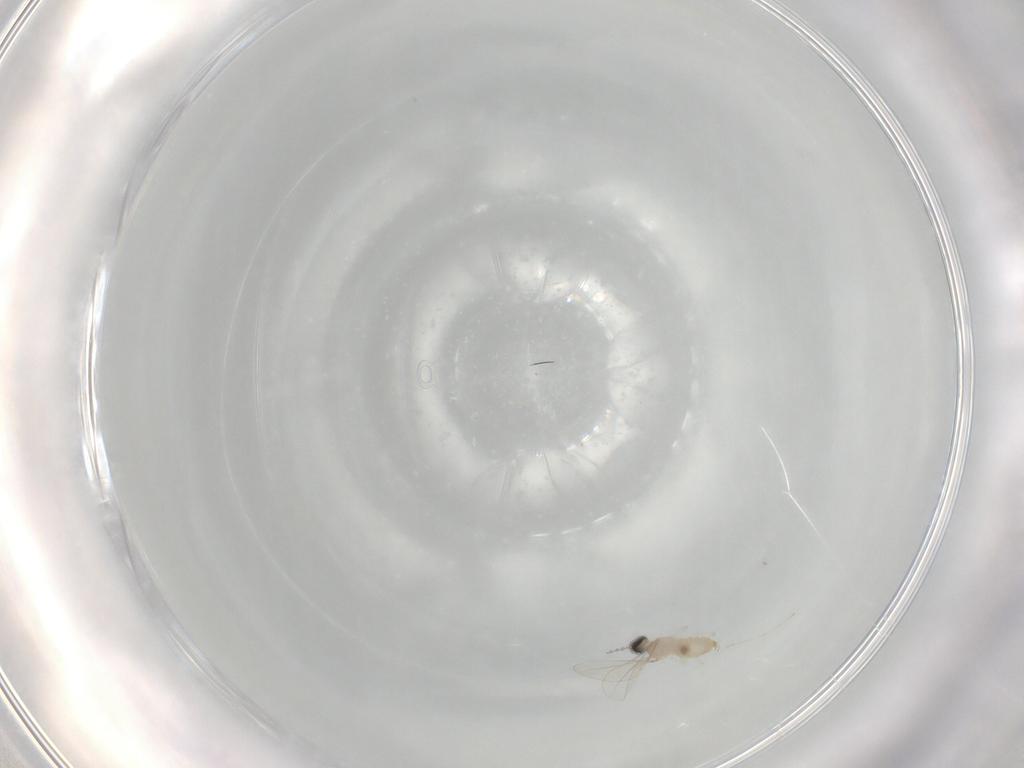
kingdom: Animalia
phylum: Arthropoda
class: Insecta
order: Diptera
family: Cecidomyiidae
